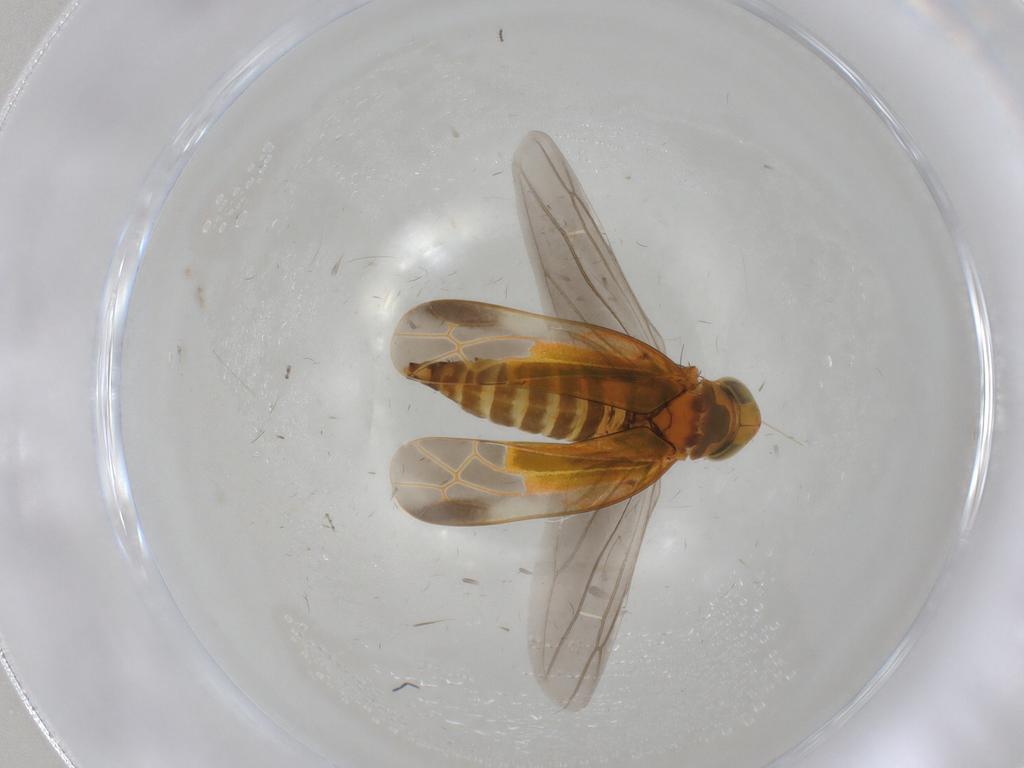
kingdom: Animalia
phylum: Arthropoda
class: Insecta
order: Hemiptera
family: Cicadellidae
